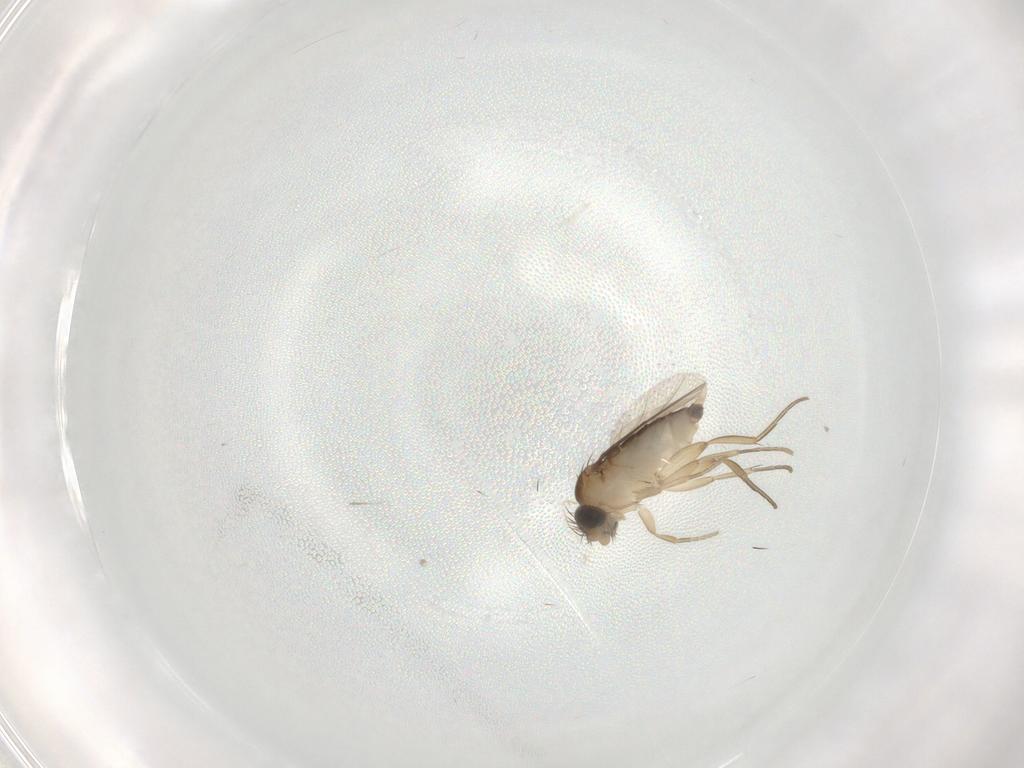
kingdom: Animalia
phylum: Arthropoda
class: Insecta
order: Diptera
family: Phoridae
